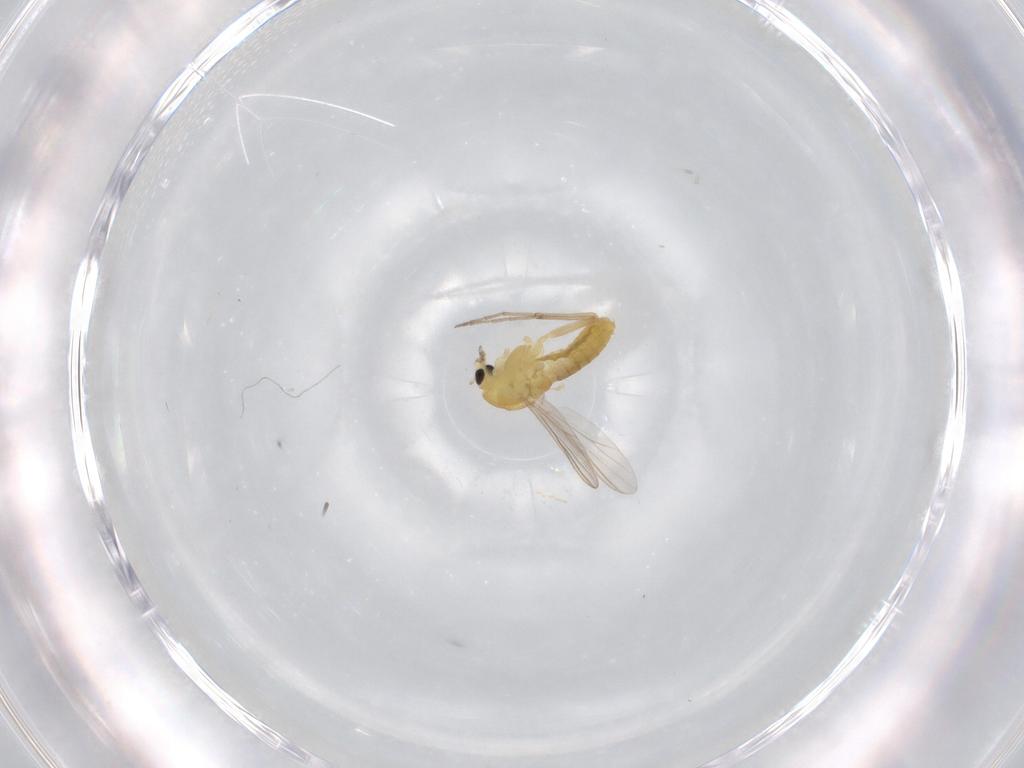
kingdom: Animalia
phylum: Arthropoda
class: Insecta
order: Diptera
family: Chironomidae
